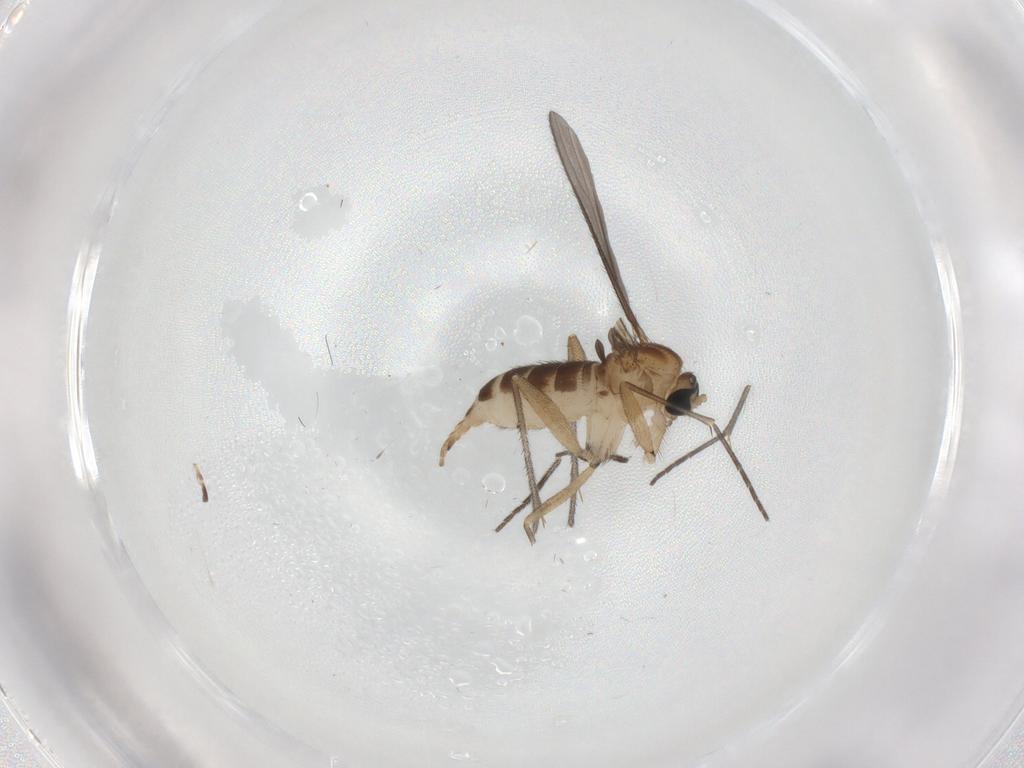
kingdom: Animalia
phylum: Arthropoda
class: Insecta
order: Diptera
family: Sciaridae
